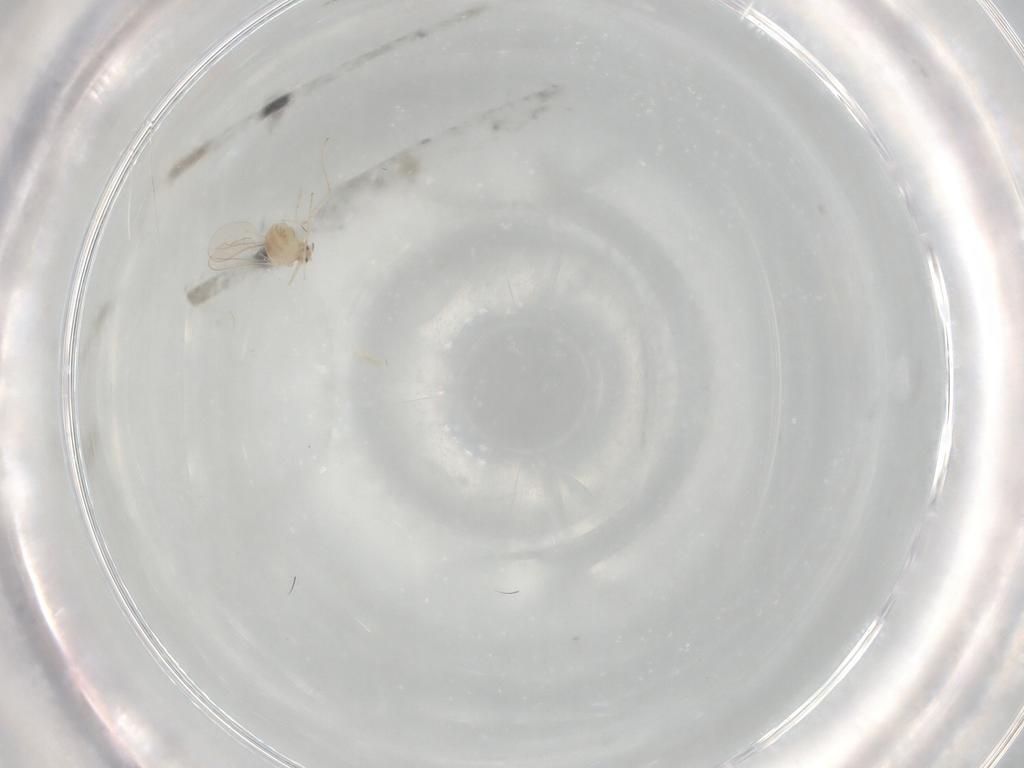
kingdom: Animalia
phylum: Arthropoda
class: Insecta
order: Diptera
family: Cecidomyiidae
